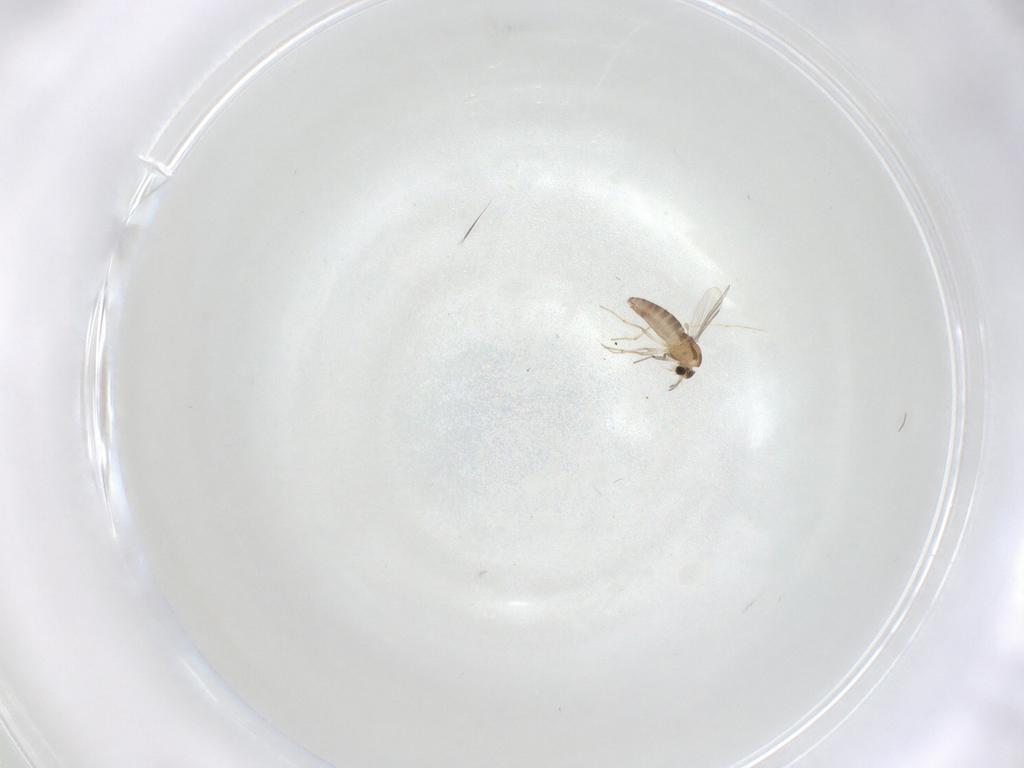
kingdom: Animalia
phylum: Arthropoda
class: Insecta
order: Diptera
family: Chironomidae
